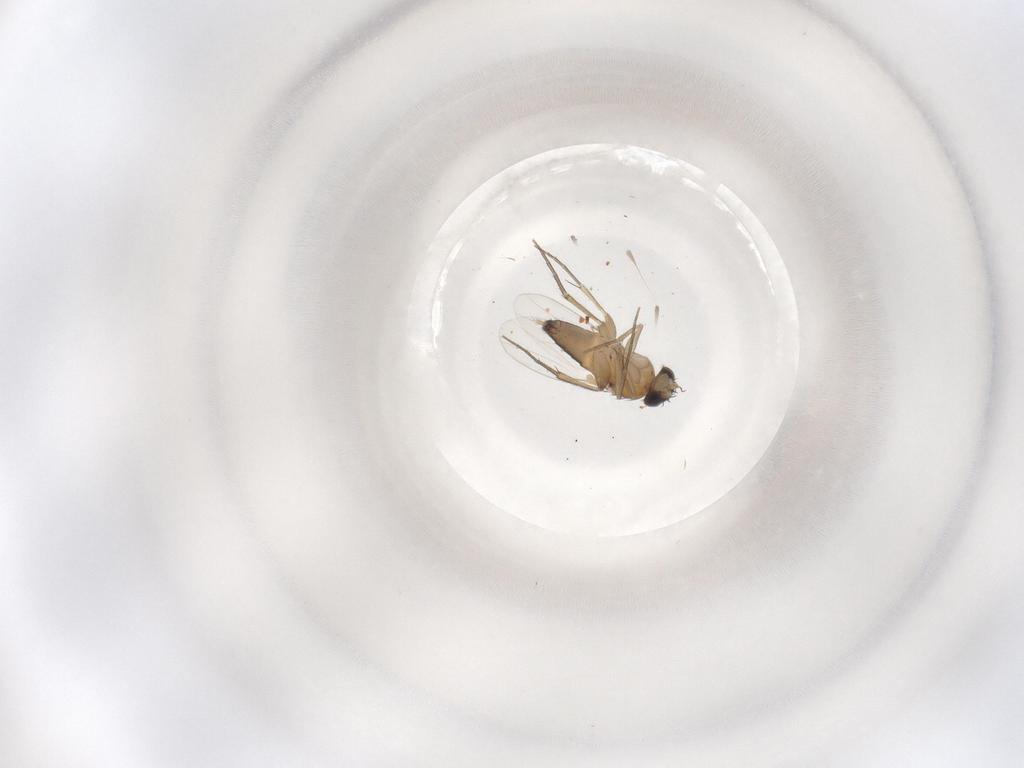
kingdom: Animalia
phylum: Arthropoda
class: Insecta
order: Diptera
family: Phoridae
